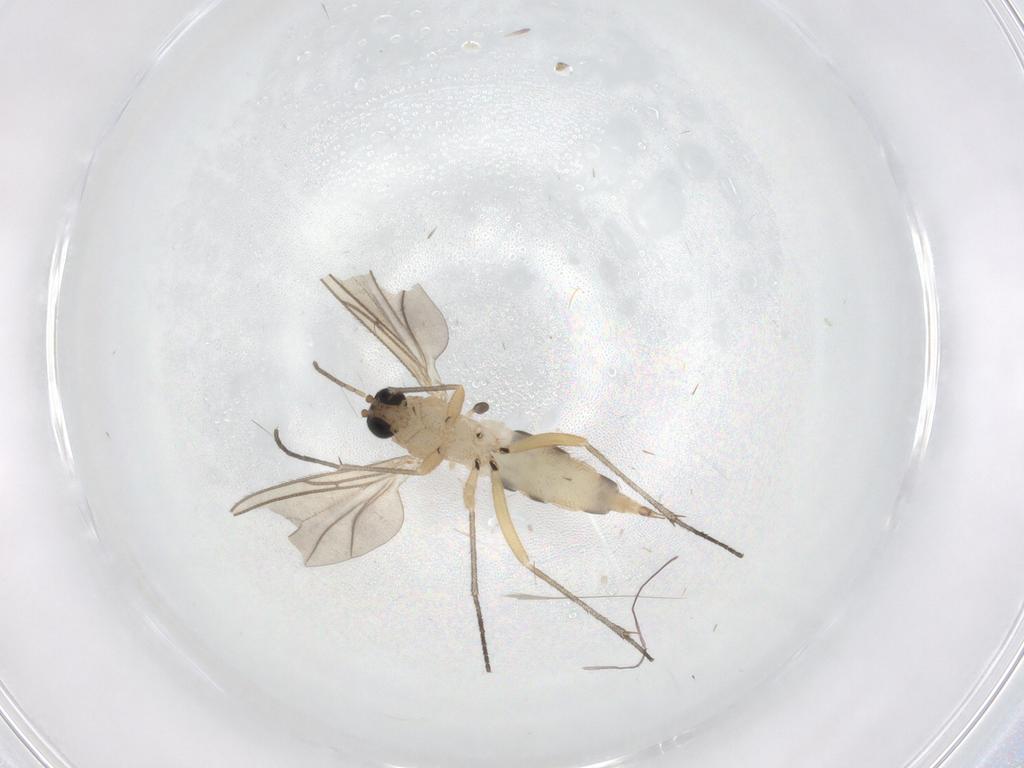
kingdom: Animalia
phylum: Arthropoda
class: Insecta
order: Diptera
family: Sciaridae
